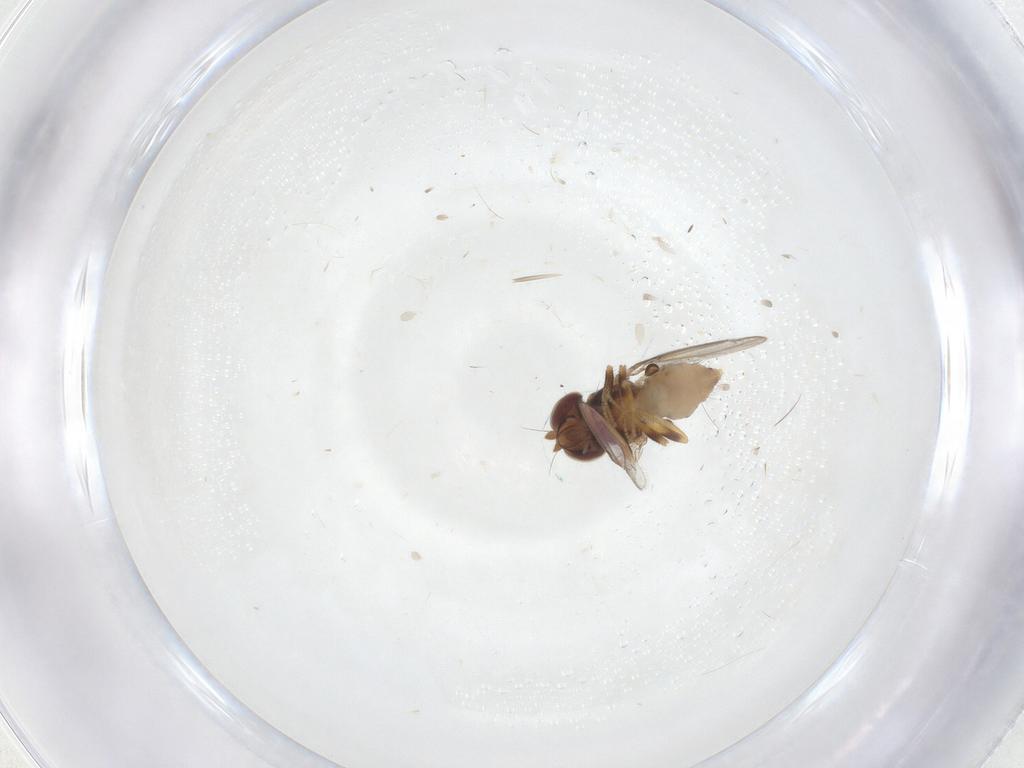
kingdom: Animalia
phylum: Arthropoda
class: Insecta
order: Diptera
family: Asteiidae
